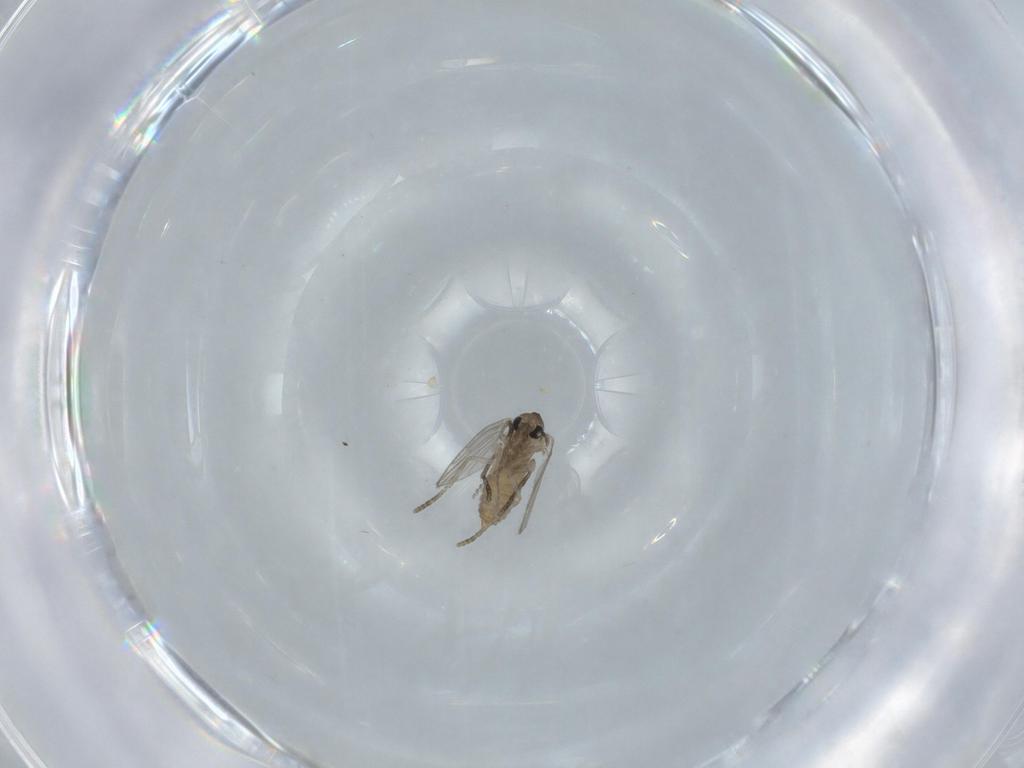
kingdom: Animalia
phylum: Arthropoda
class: Insecta
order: Diptera
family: Psychodidae
